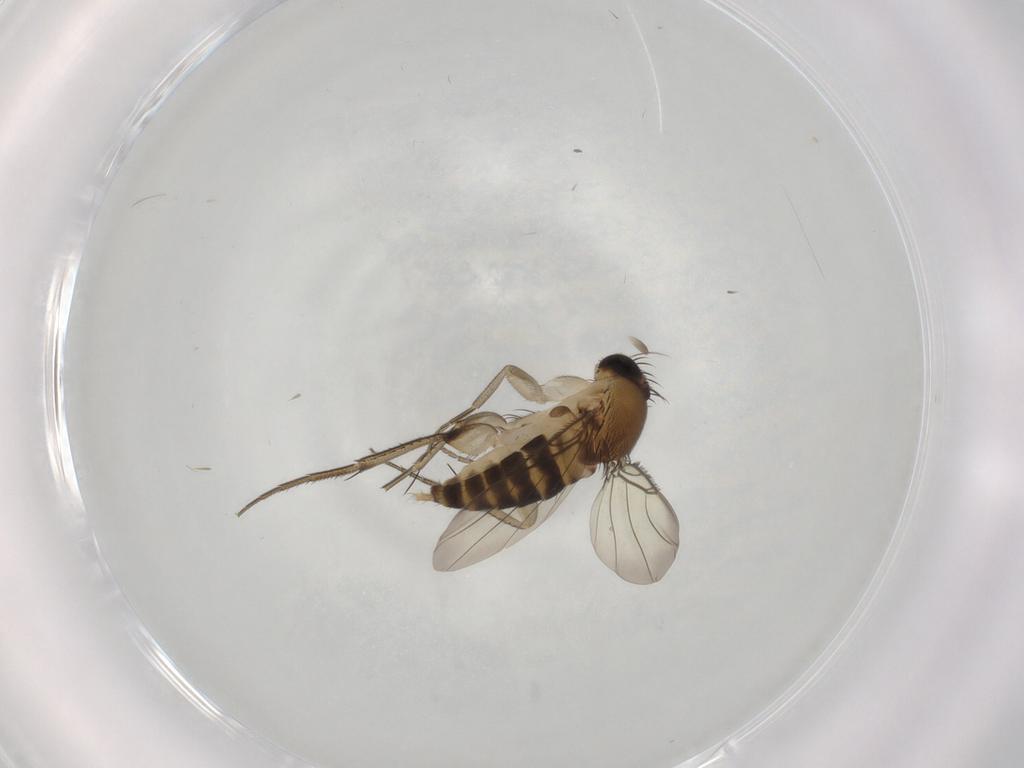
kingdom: Animalia
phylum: Arthropoda
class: Insecta
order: Diptera
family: Phoridae
